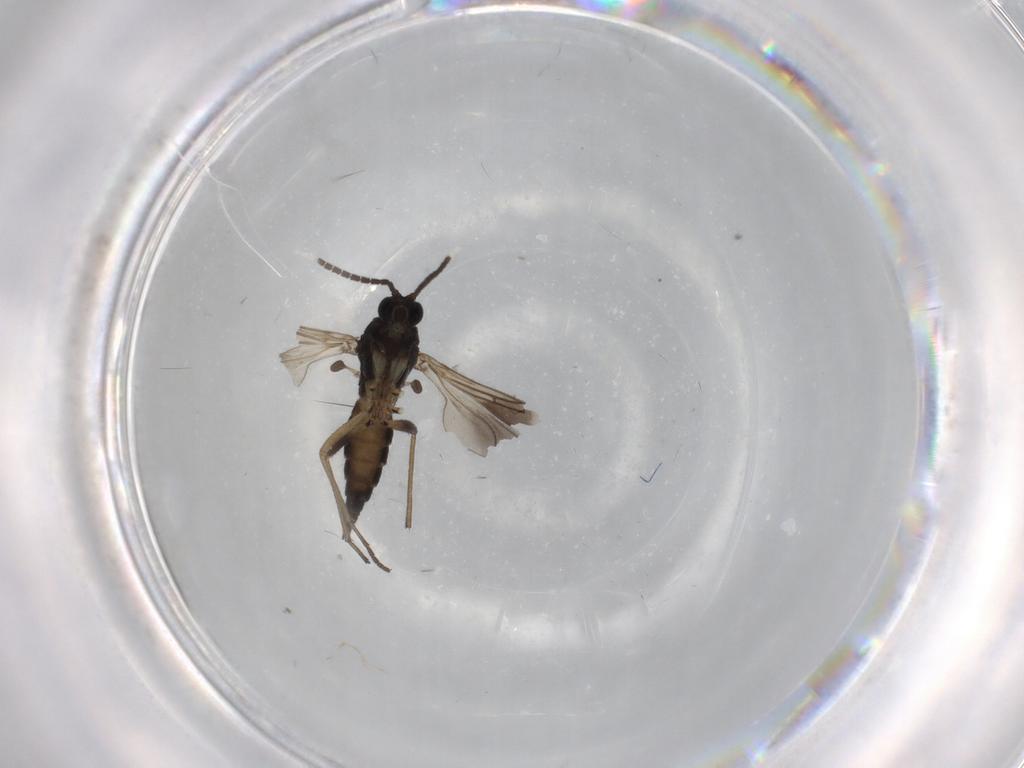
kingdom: Animalia
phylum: Arthropoda
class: Insecta
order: Diptera
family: Sciaridae
